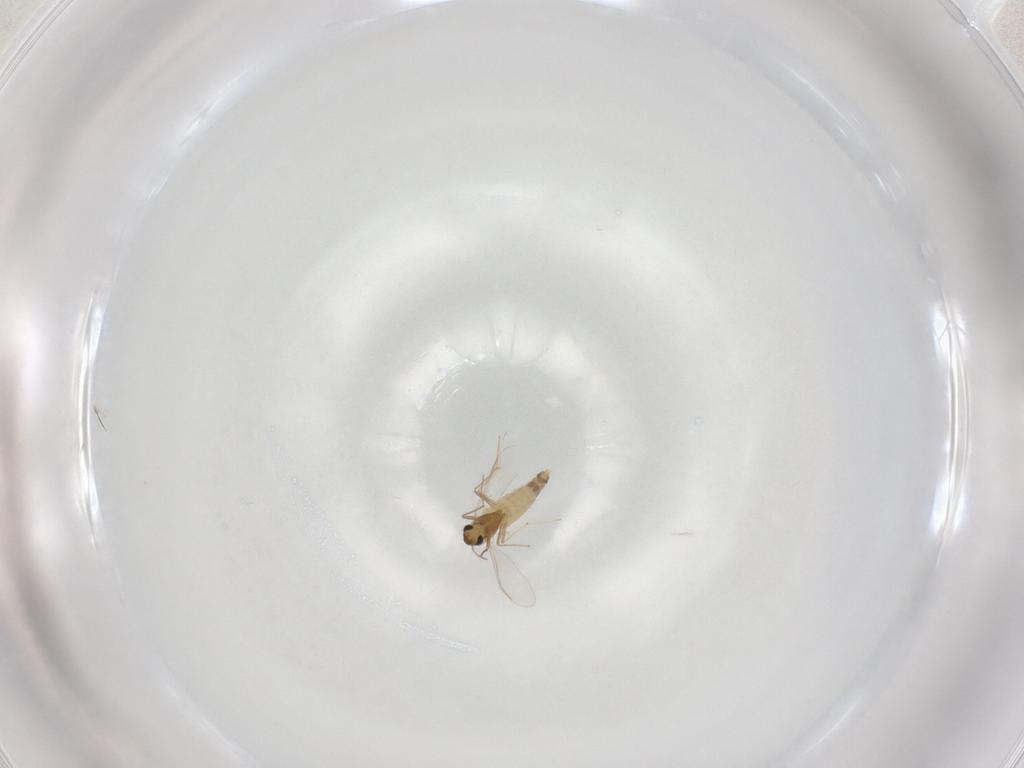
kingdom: Animalia
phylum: Arthropoda
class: Insecta
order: Diptera
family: Chironomidae
